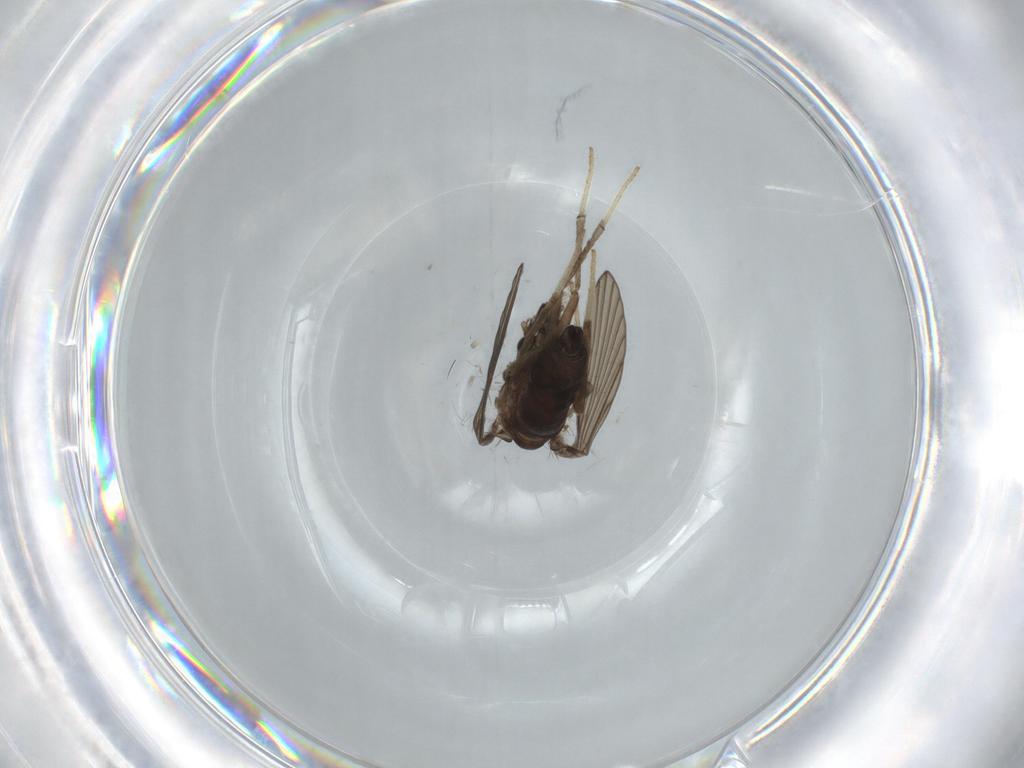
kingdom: Animalia
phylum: Arthropoda
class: Insecta
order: Diptera
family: Chironomidae
